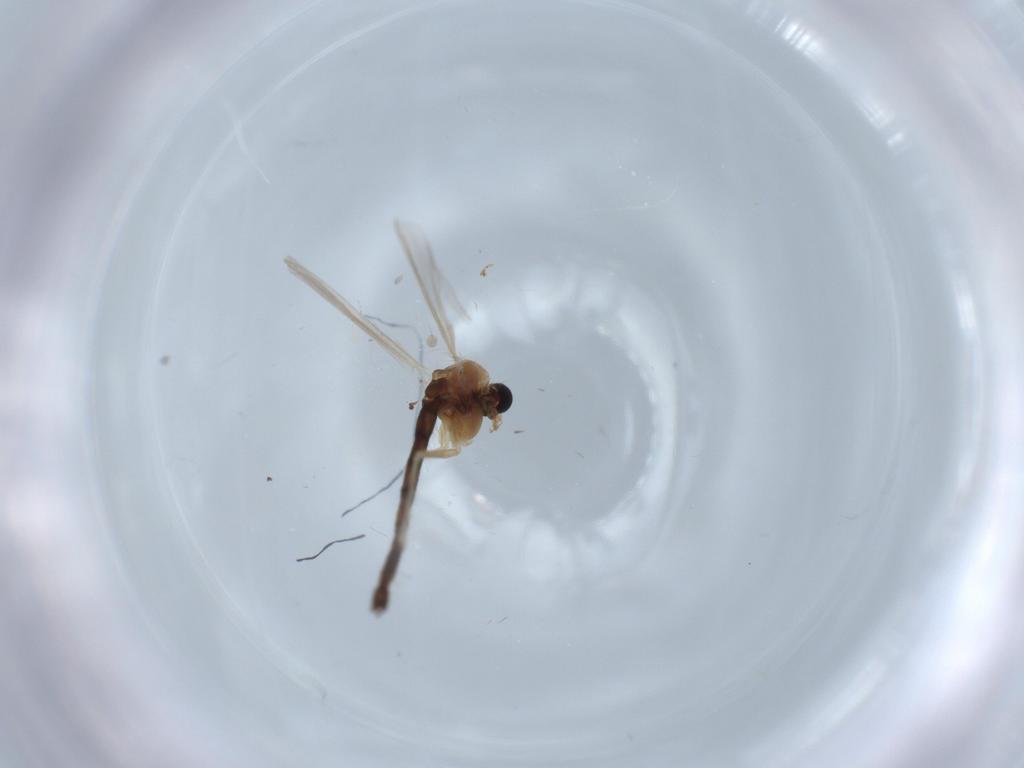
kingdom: Animalia
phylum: Arthropoda
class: Insecta
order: Diptera
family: Chironomidae
